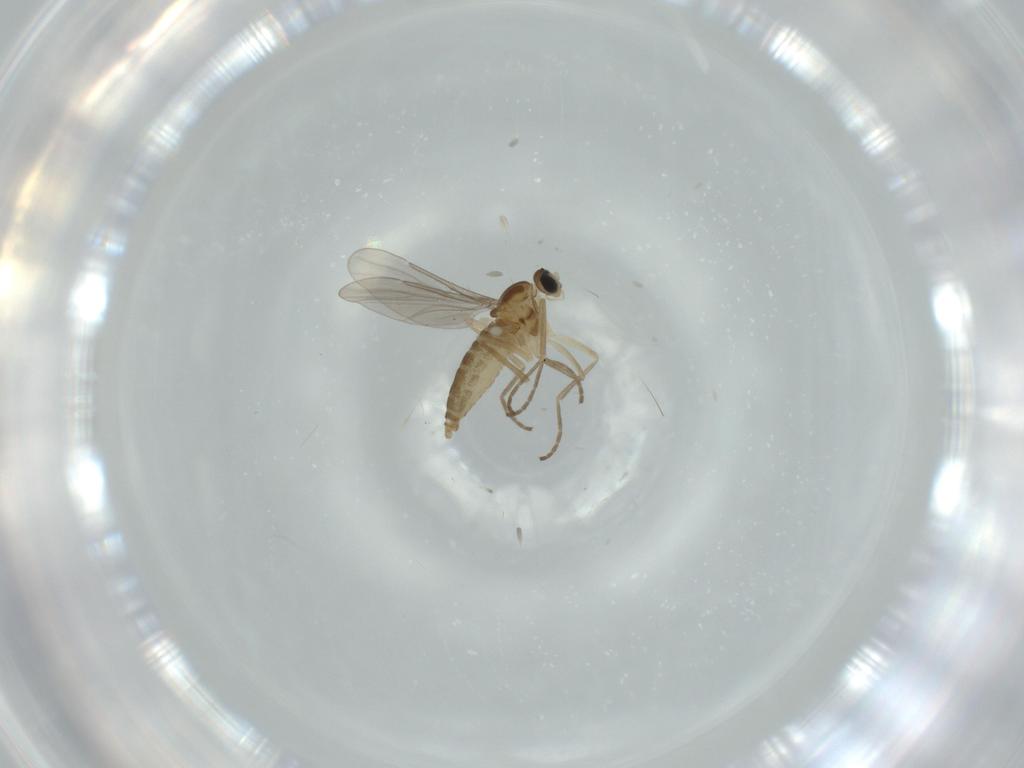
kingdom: Animalia
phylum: Arthropoda
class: Insecta
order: Diptera
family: Cecidomyiidae
